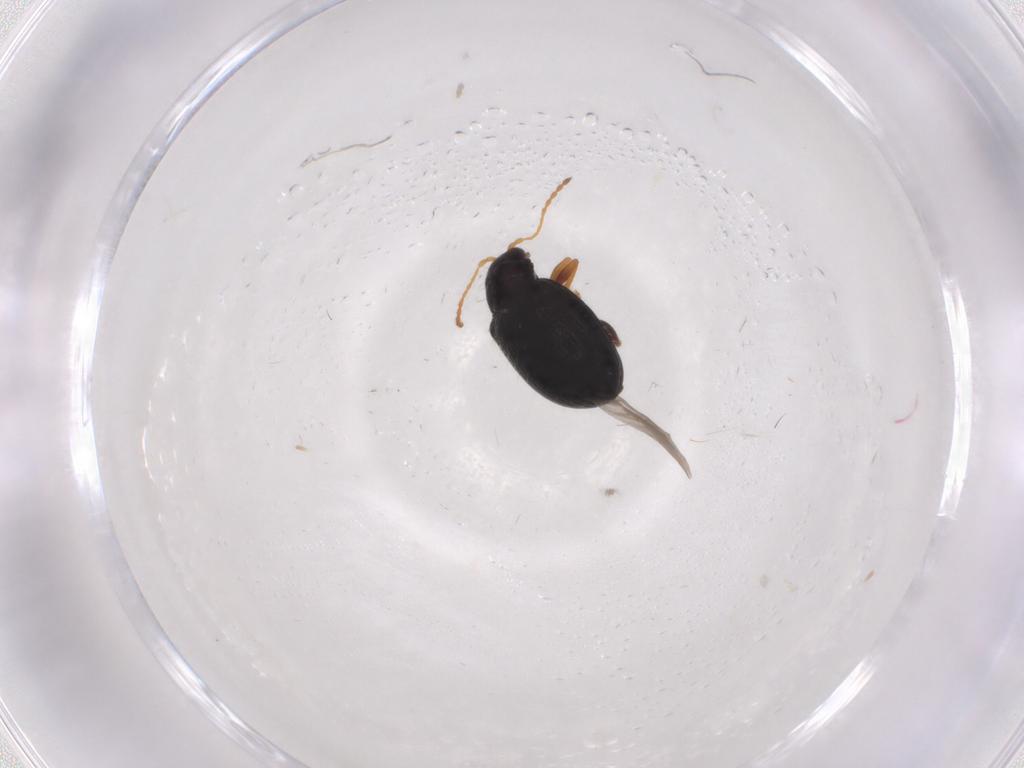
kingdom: Animalia
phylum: Arthropoda
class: Insecta
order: Coleoptera
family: Chrysomelidae
